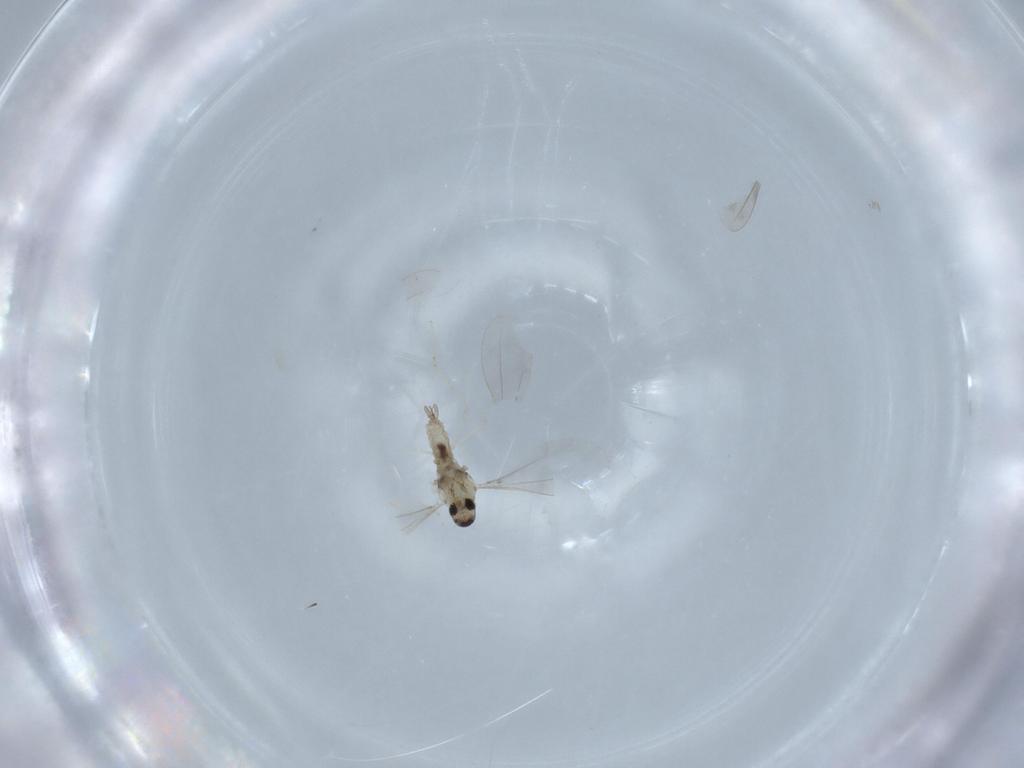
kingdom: Animalia
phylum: Arthropoda
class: Insecta
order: Diptera
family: Cecidomyiidae
